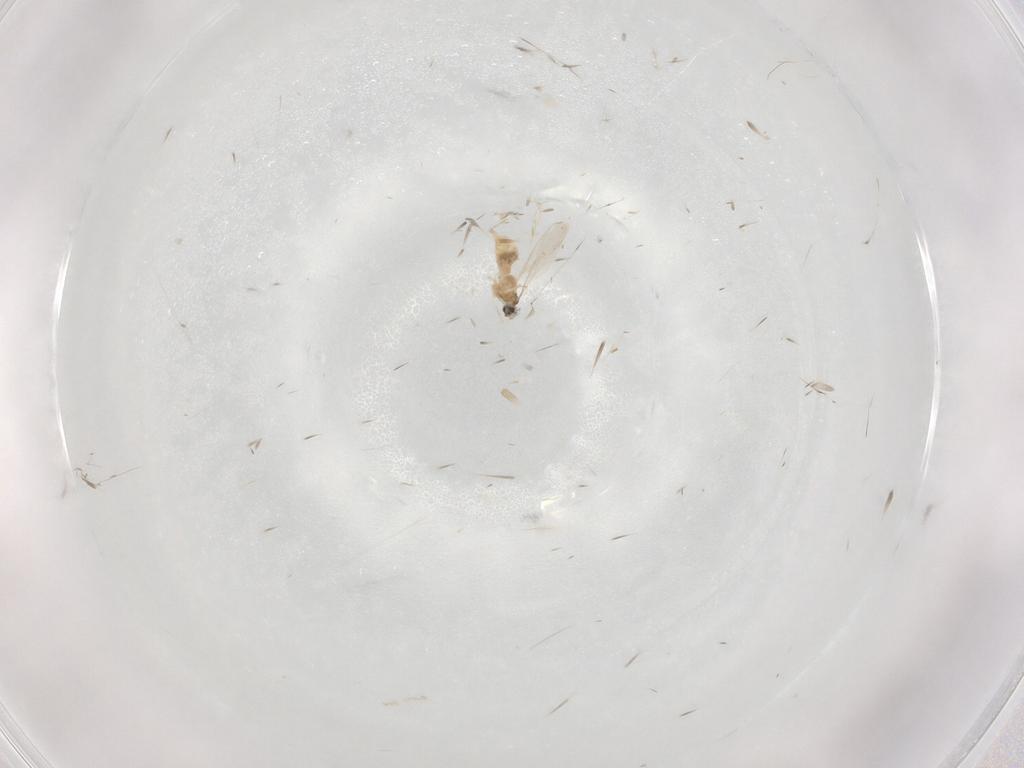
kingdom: Animalia
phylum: Arthropoda
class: Insecta
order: Diptera
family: Cecidomyiidae
